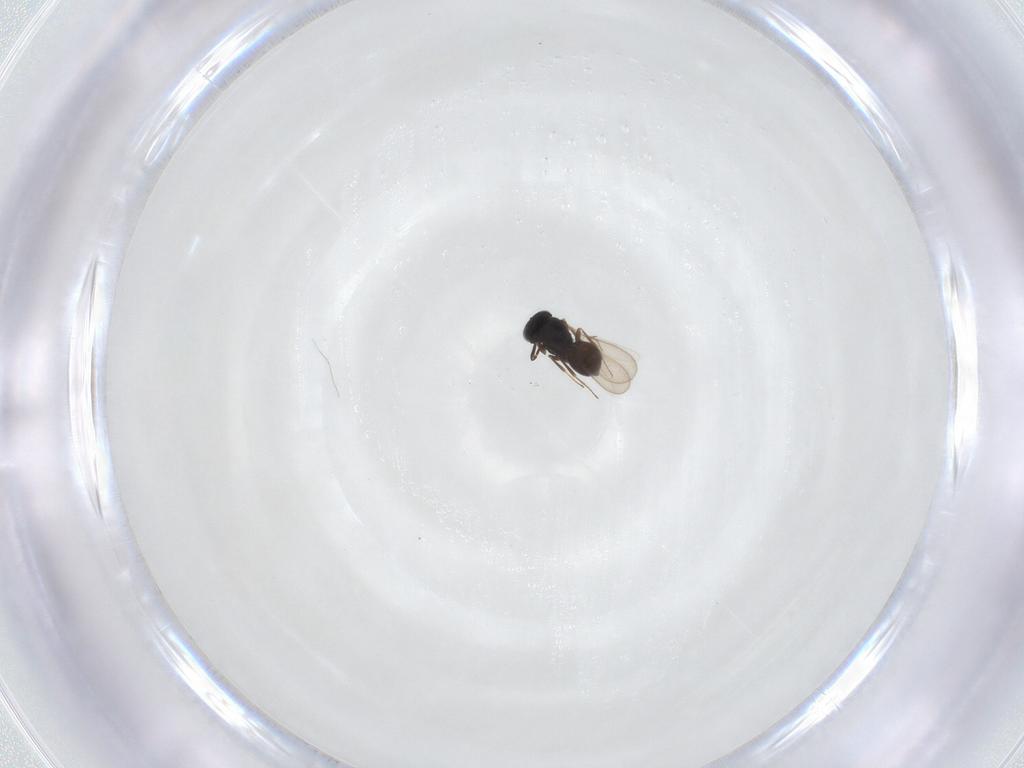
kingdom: Animalia
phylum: Arthropoda
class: Insecta
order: Hymenoptera
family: Scelionidae
